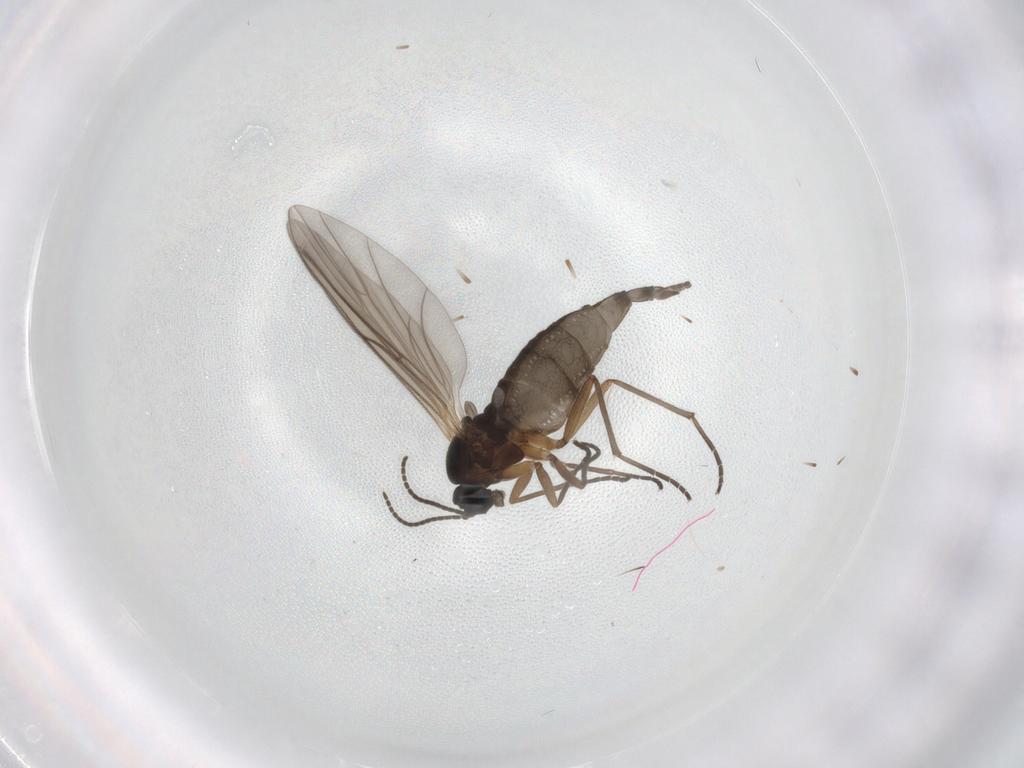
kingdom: Animalia
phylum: Arthropoda
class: Insecta
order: Diptera
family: Sciaridae
